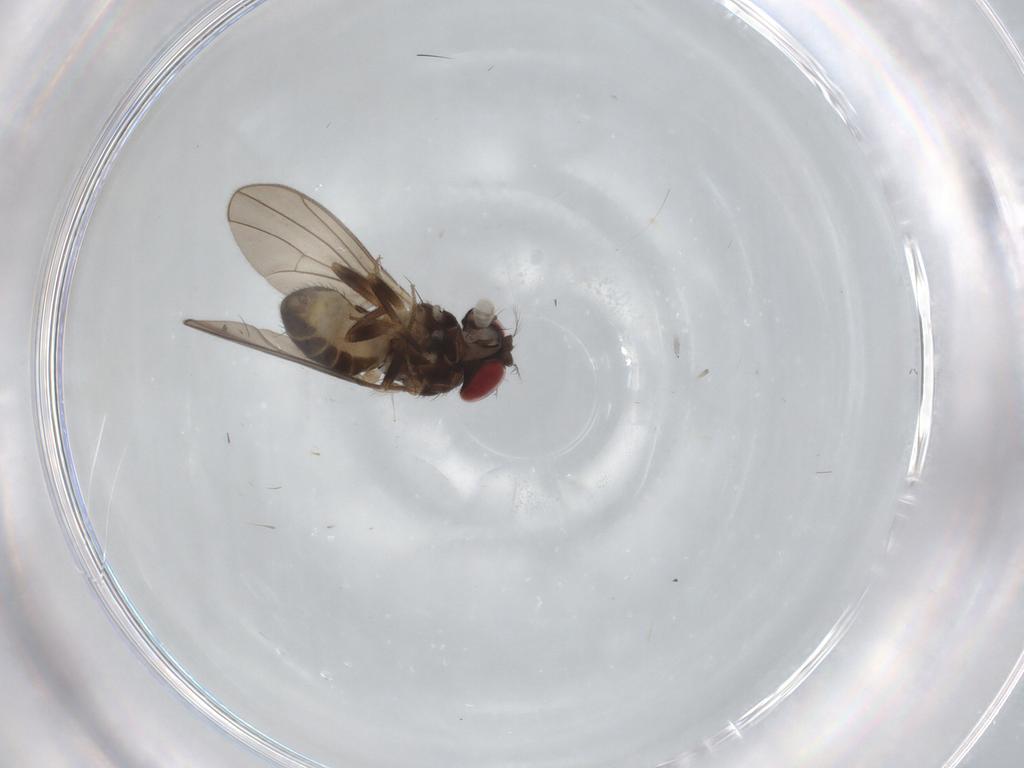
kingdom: Animalia
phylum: Arthropoda
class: Insecta
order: Diptera
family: Drosophilidae
